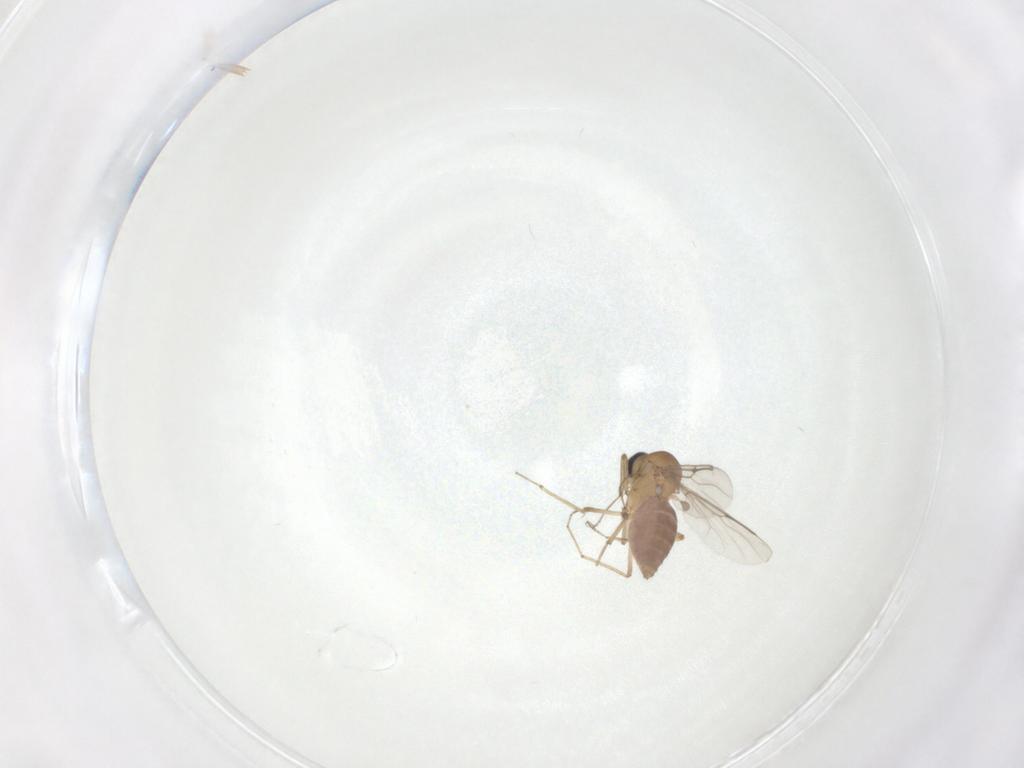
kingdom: Animalia
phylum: Arthropoda
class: Insecta
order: Diptera
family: Ceratopogonidae
